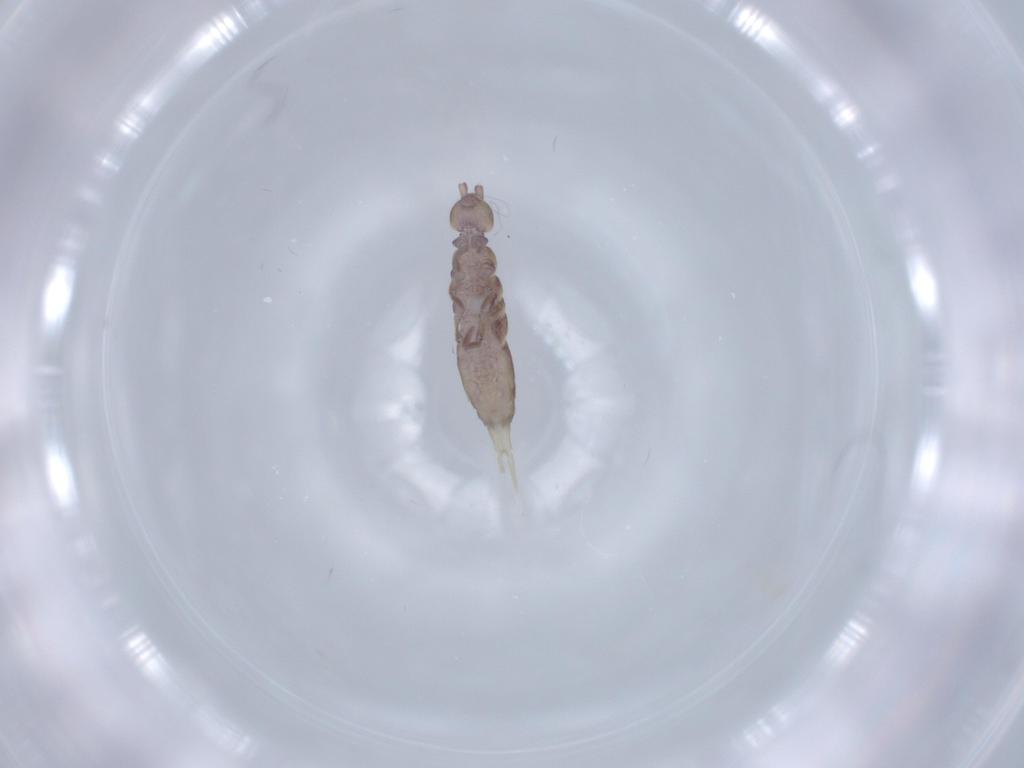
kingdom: Animalia
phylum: Arthropoda
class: Collembola
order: Entomobryomorpha
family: Isotomidae
